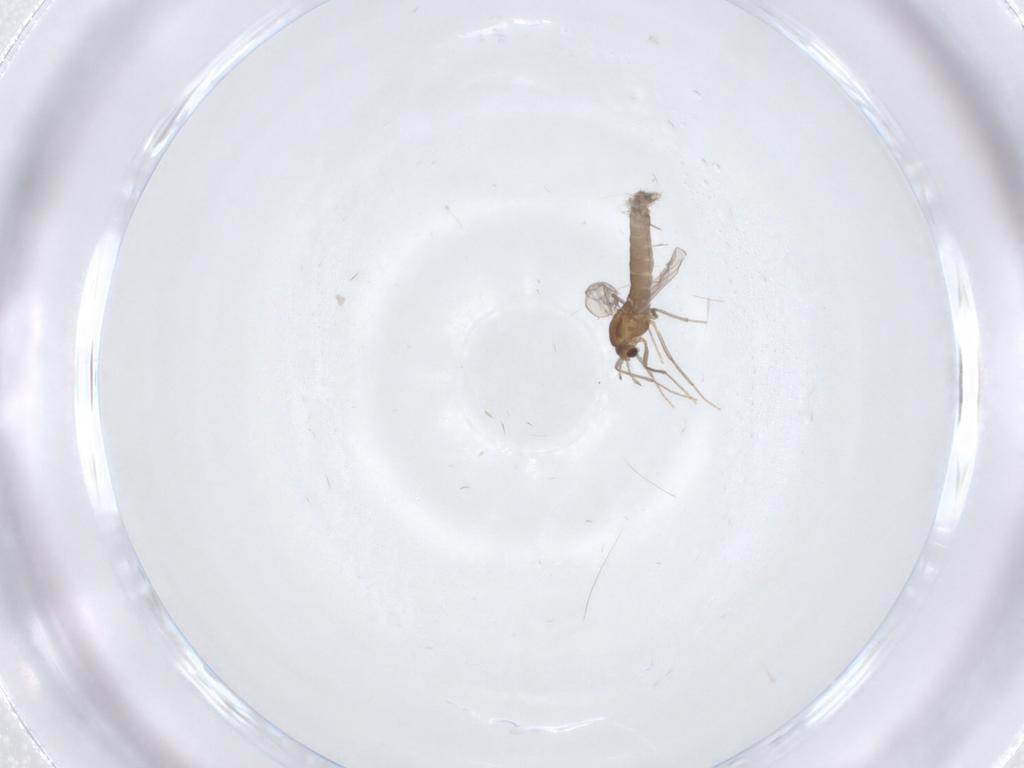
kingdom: Animalia
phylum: Arthropoda
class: Insecta
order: Diptera
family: Chironomidae
